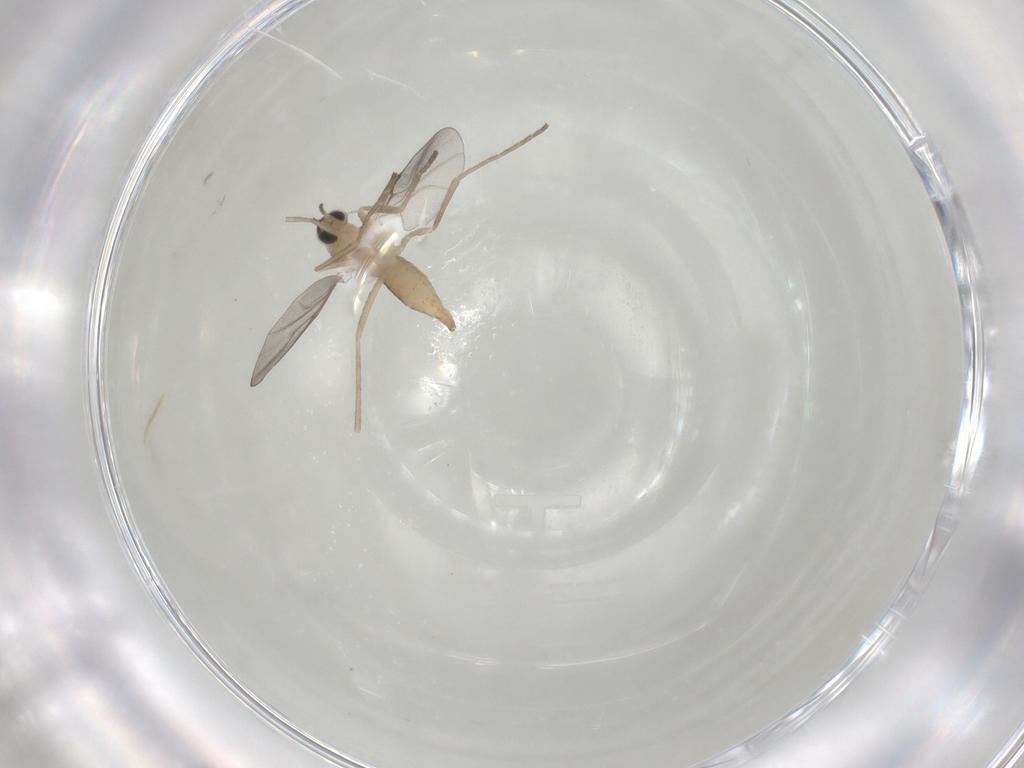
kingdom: Animalia
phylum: Arthropoda
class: Insecta
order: Diptera
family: Cecidomyiidae
